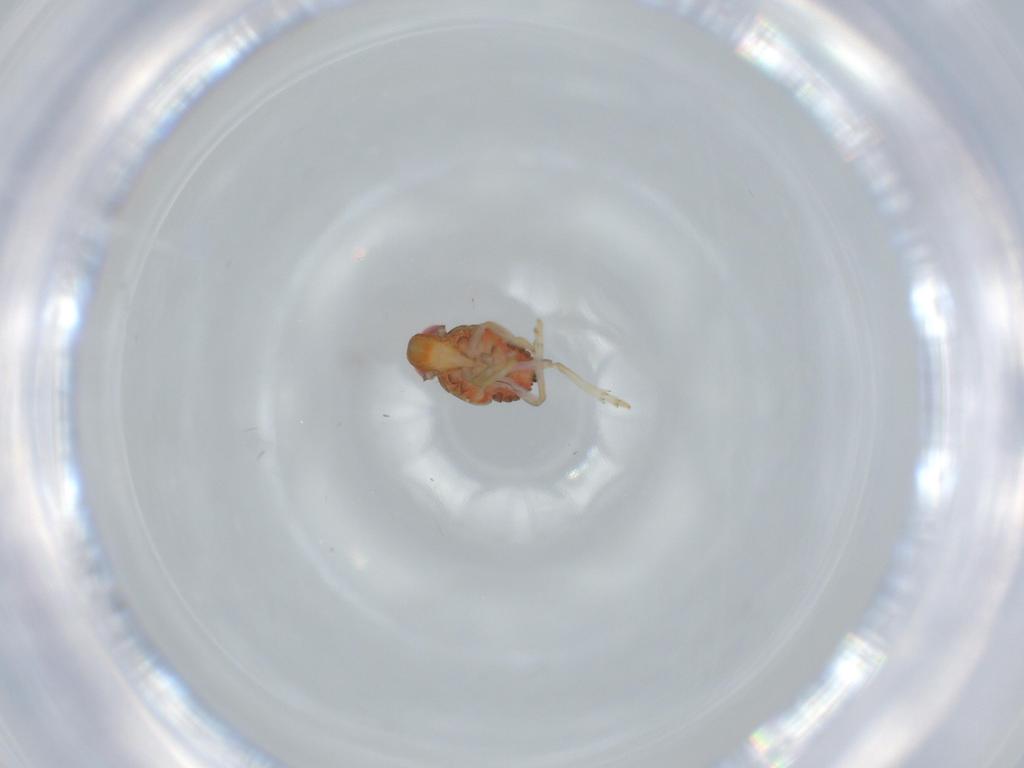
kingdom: Animalia
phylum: Arthropoda
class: Insecta
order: Hemiptera
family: Issidae
